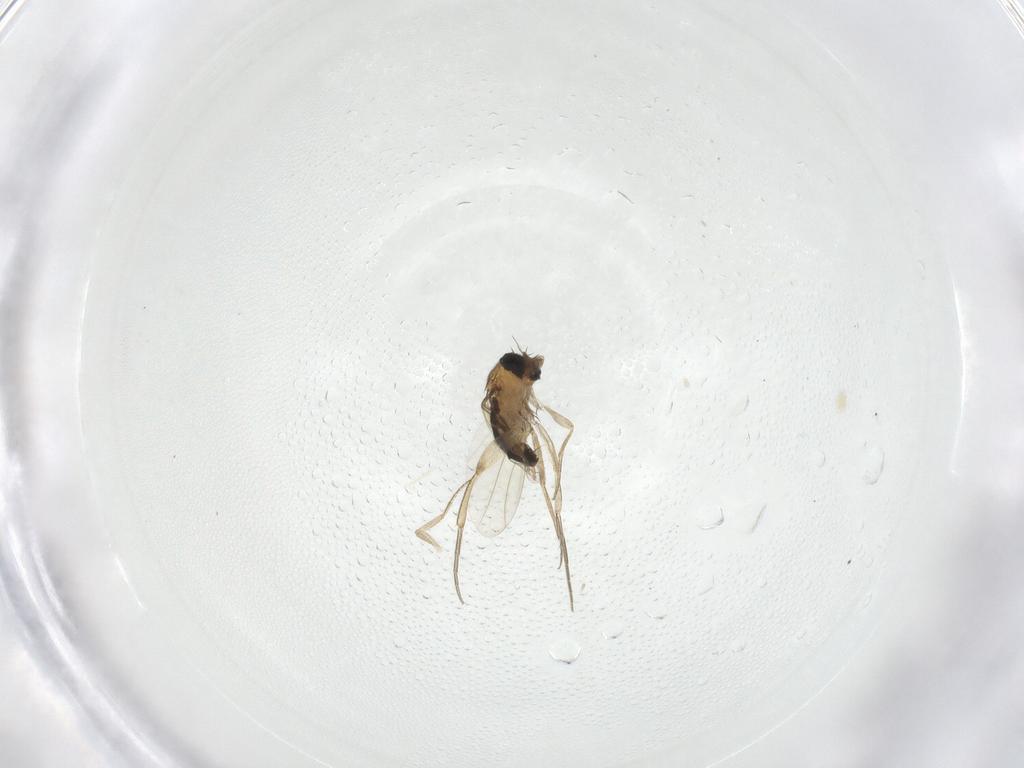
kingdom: Animalia
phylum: Arthropoda
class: Insecta
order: Diptera
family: Phoridae
